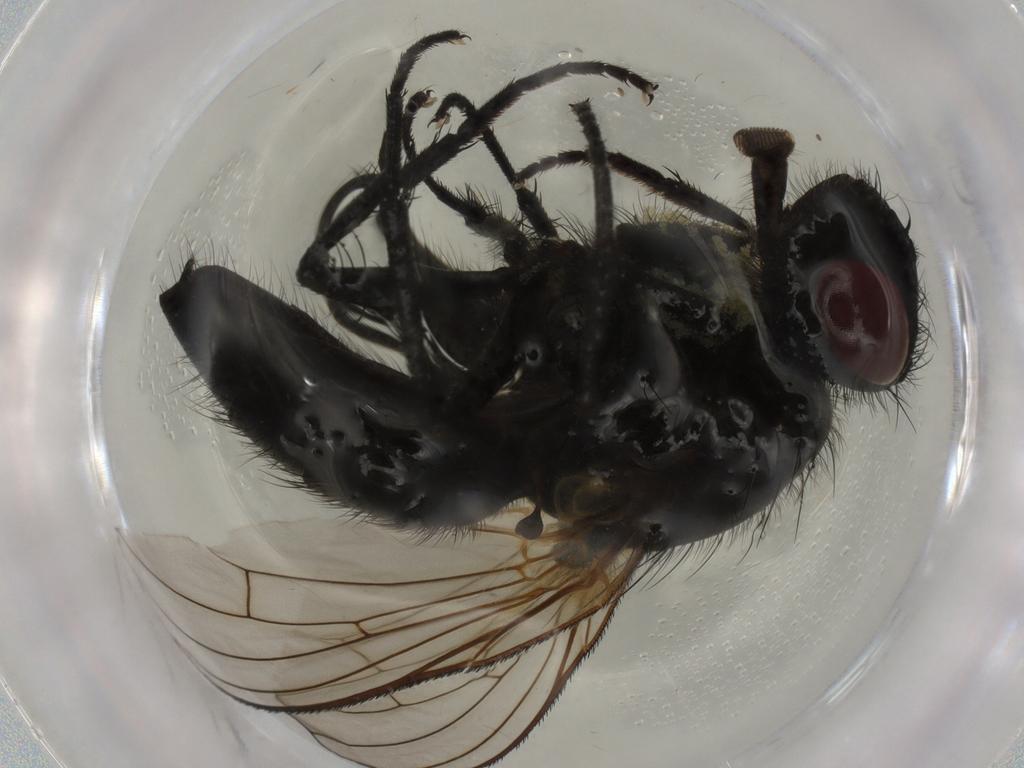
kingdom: Animalia
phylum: Arthropoda
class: Insecta
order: Diptera
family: Muscidae
